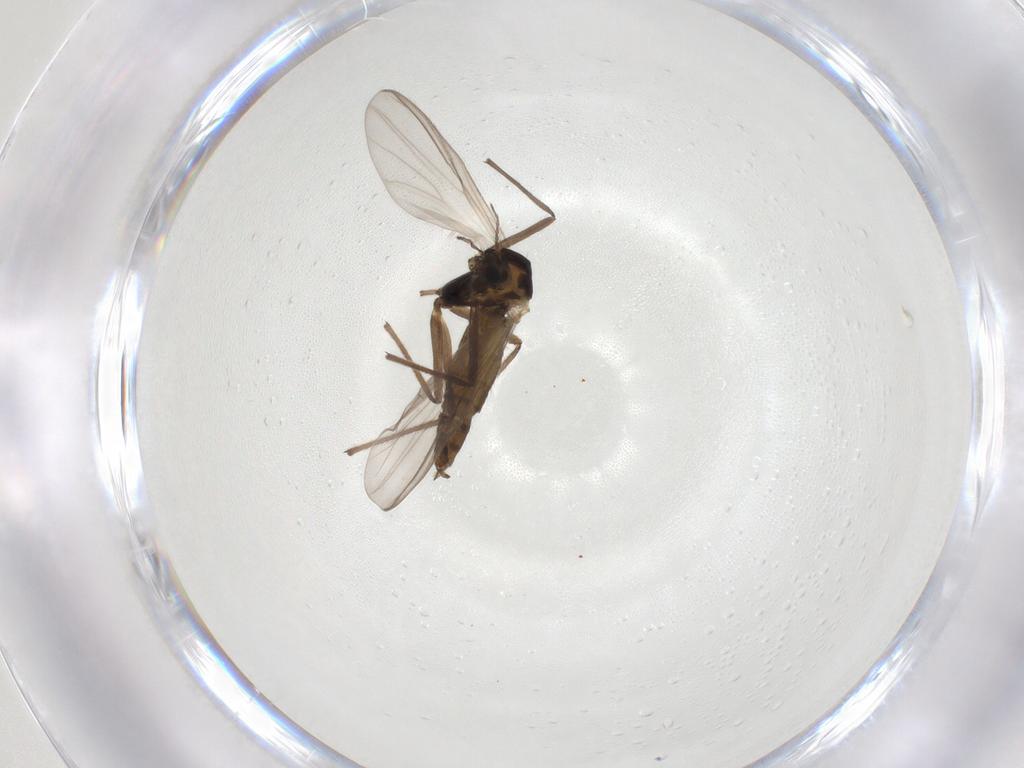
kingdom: Animalia
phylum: Arthropoda
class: Insecta
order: Diptera
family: Chironomidae
